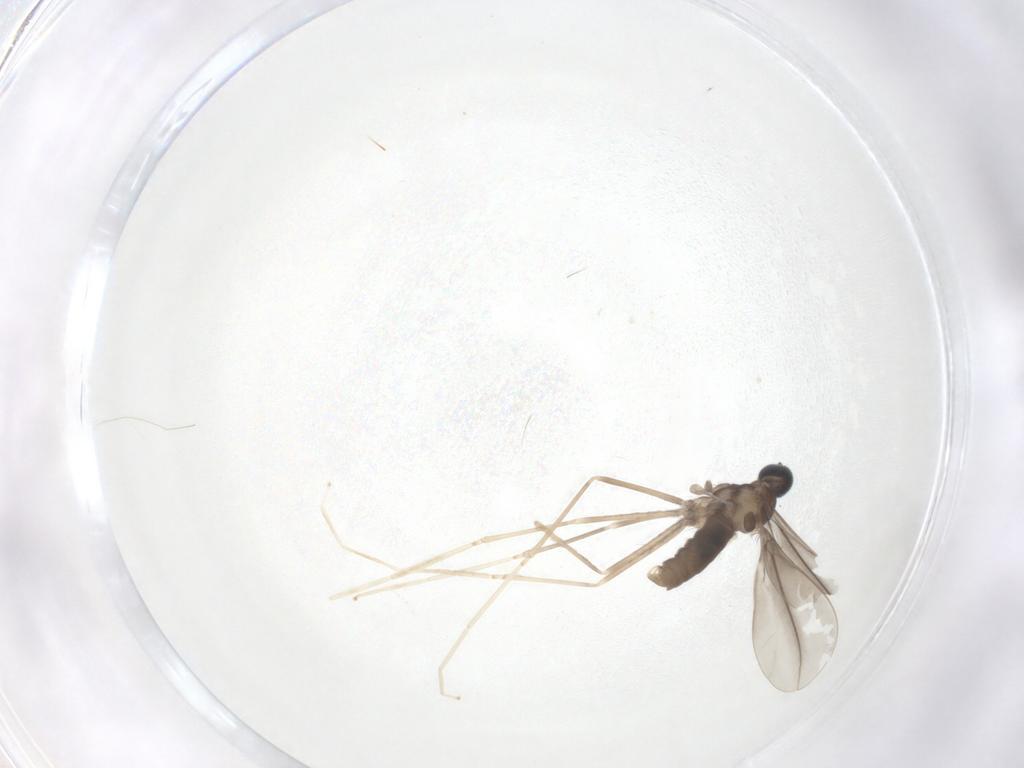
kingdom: Animalia
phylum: Arthropoda
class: Insecta
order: Diptera
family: Cecidomyiidae
